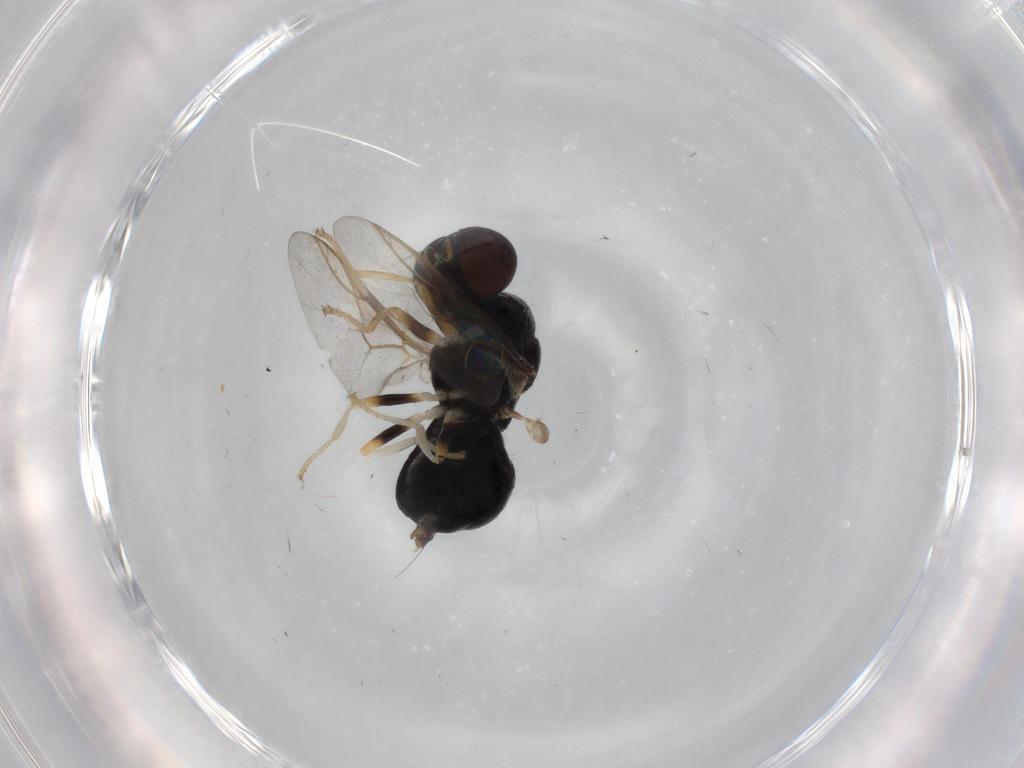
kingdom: Animalia
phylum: Arthropoda
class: Insecta
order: Diptera
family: Stratiomyidae
